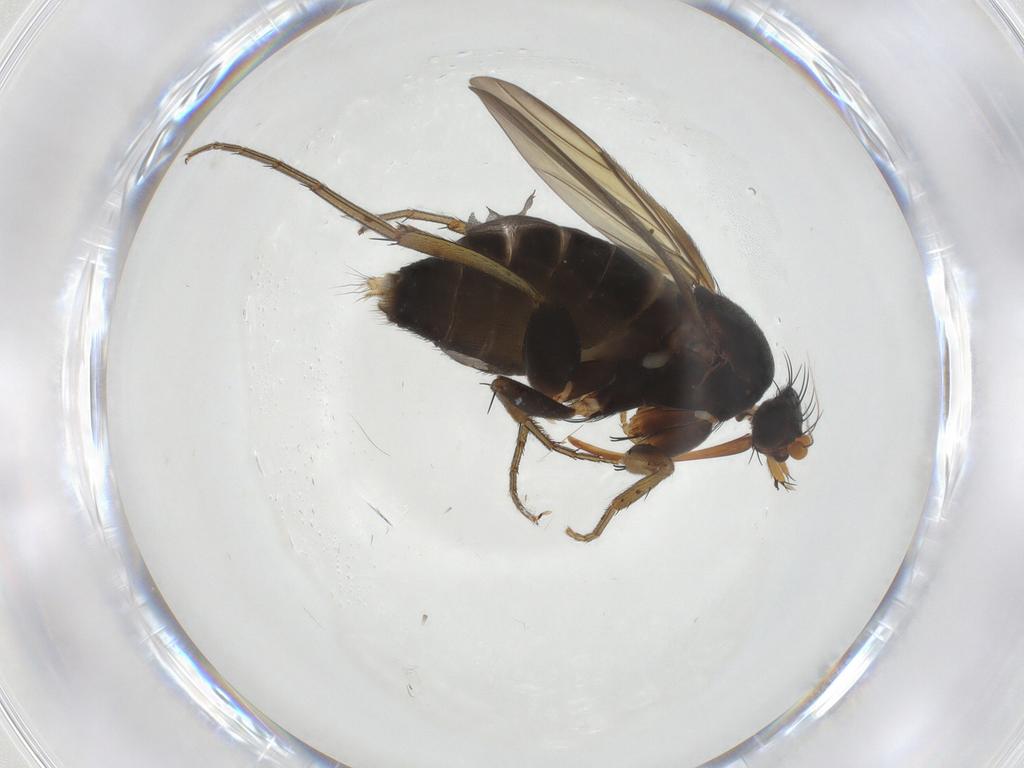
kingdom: Animalia
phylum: Arthropoda
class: Insecta
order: Diptera
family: Phoridae
